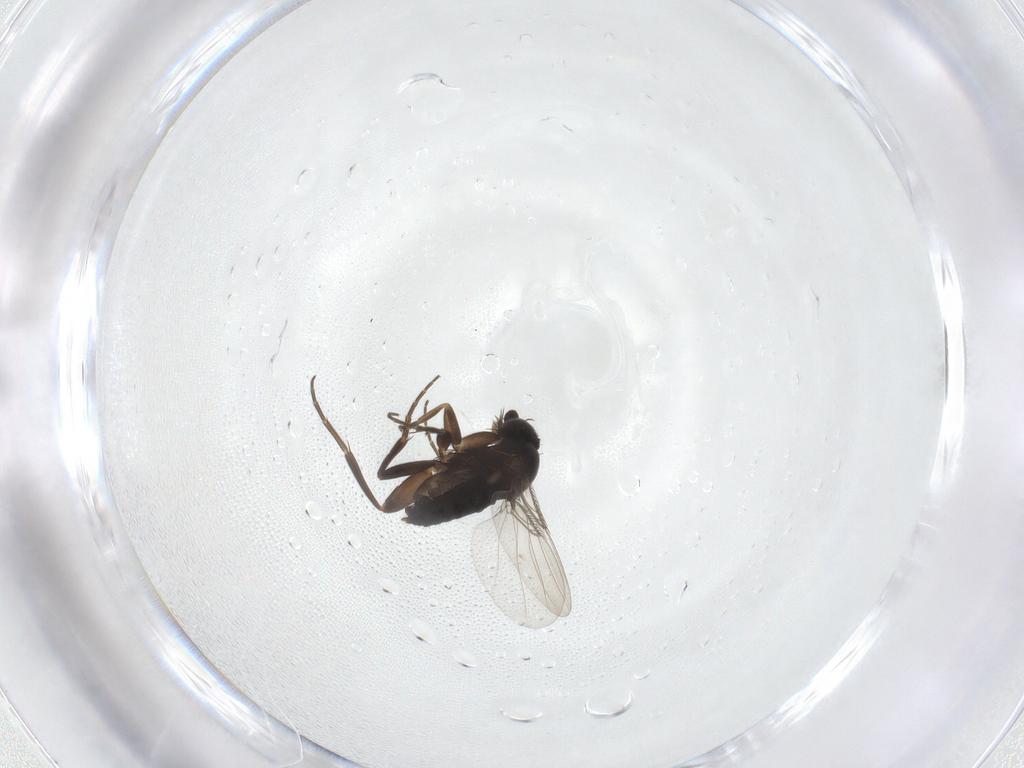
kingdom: Animalia
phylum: Arthropoda
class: Insecta
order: Diptera
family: Phoridae
